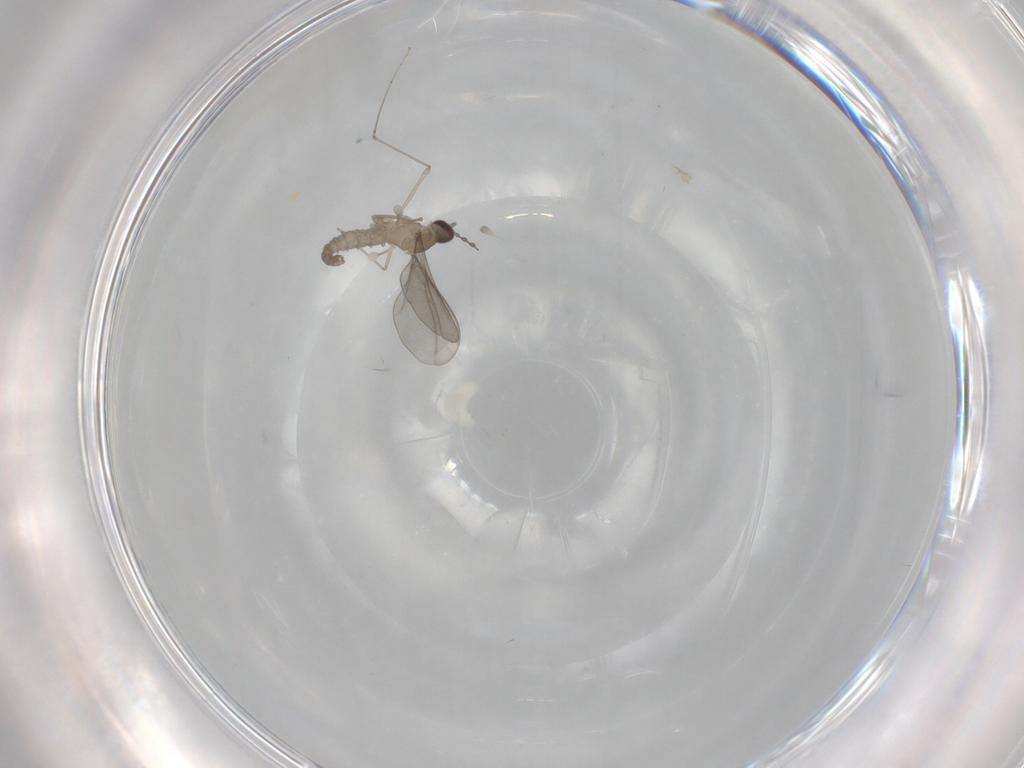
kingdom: Animalia
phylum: Arthropoda
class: Insecta
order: Diptera
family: Cecidomyiidae
